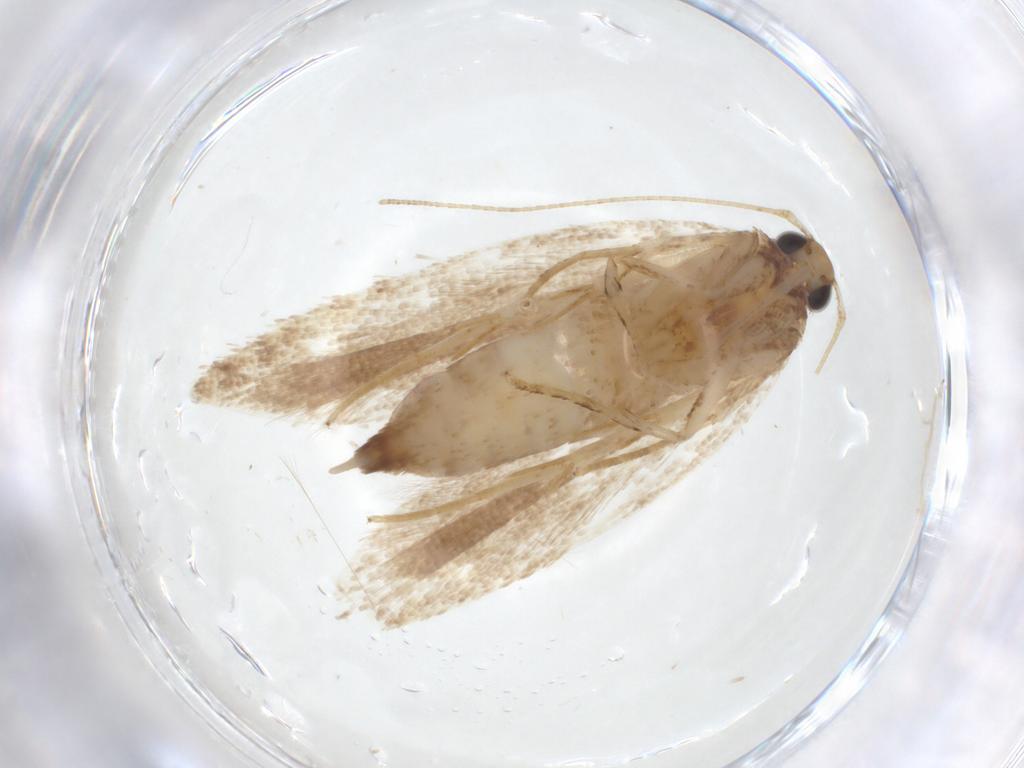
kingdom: Animalia
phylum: Arthropoda
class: Insecta
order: Lepidoptera
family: Gelechiidae
